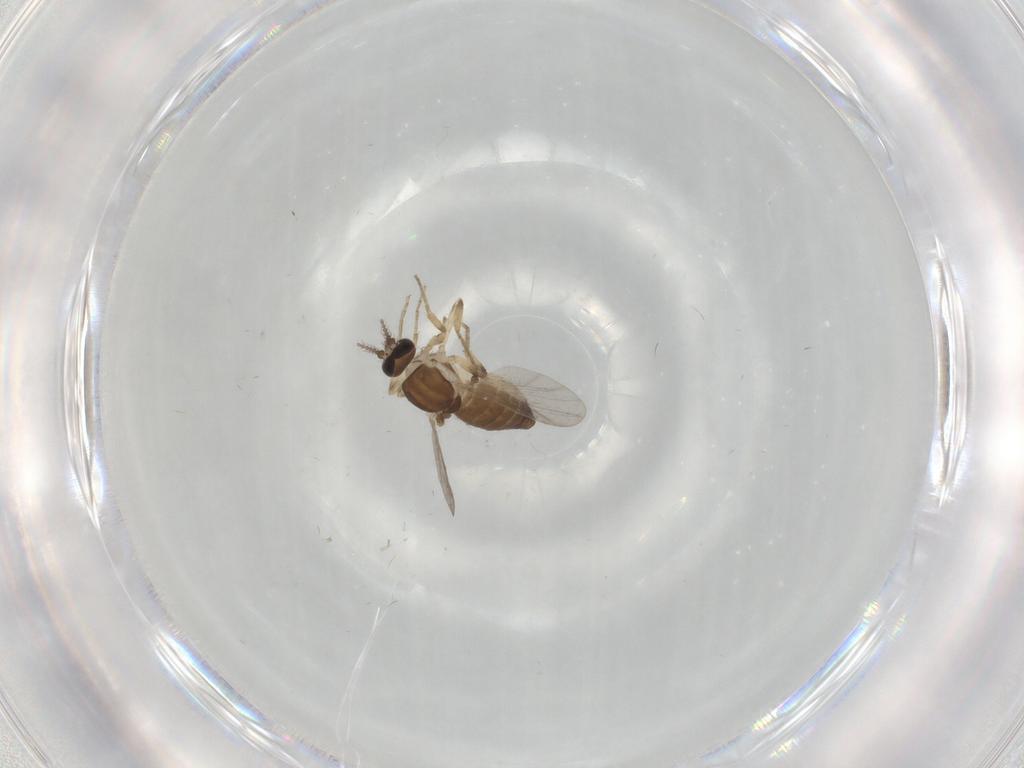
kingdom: Animalia
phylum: Arthropoda
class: Insecta
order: Diptera
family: Ceratopogonidae
